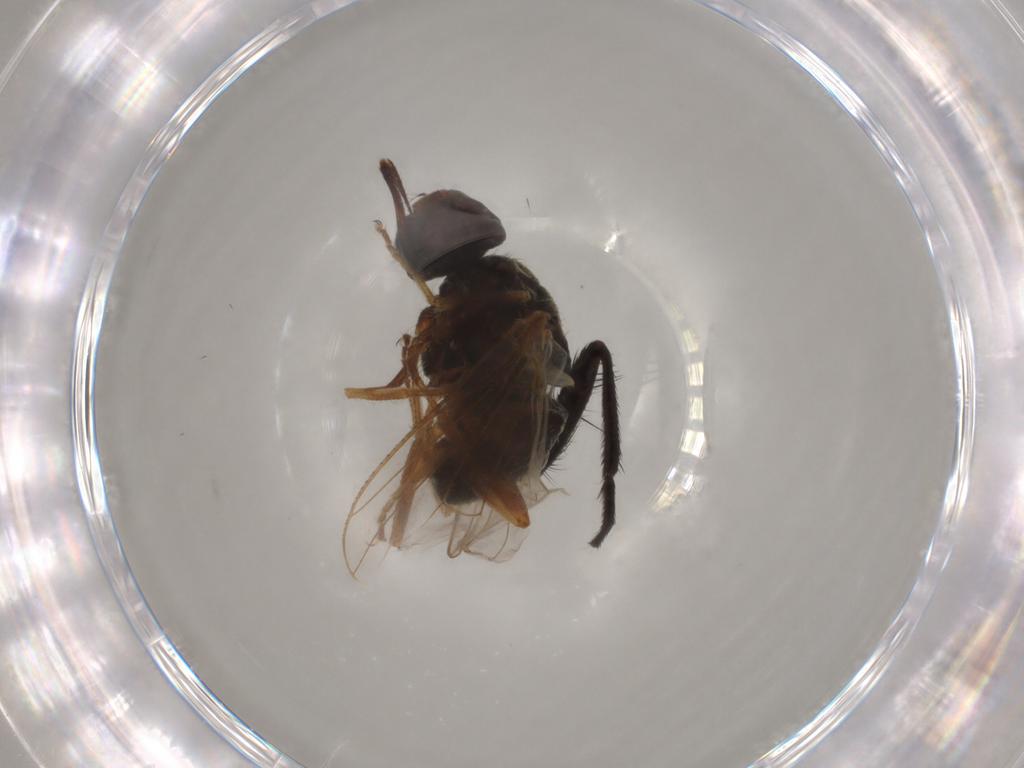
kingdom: Animalia
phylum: Arthropoda
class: Insecta
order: Diptera
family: Muscidae
